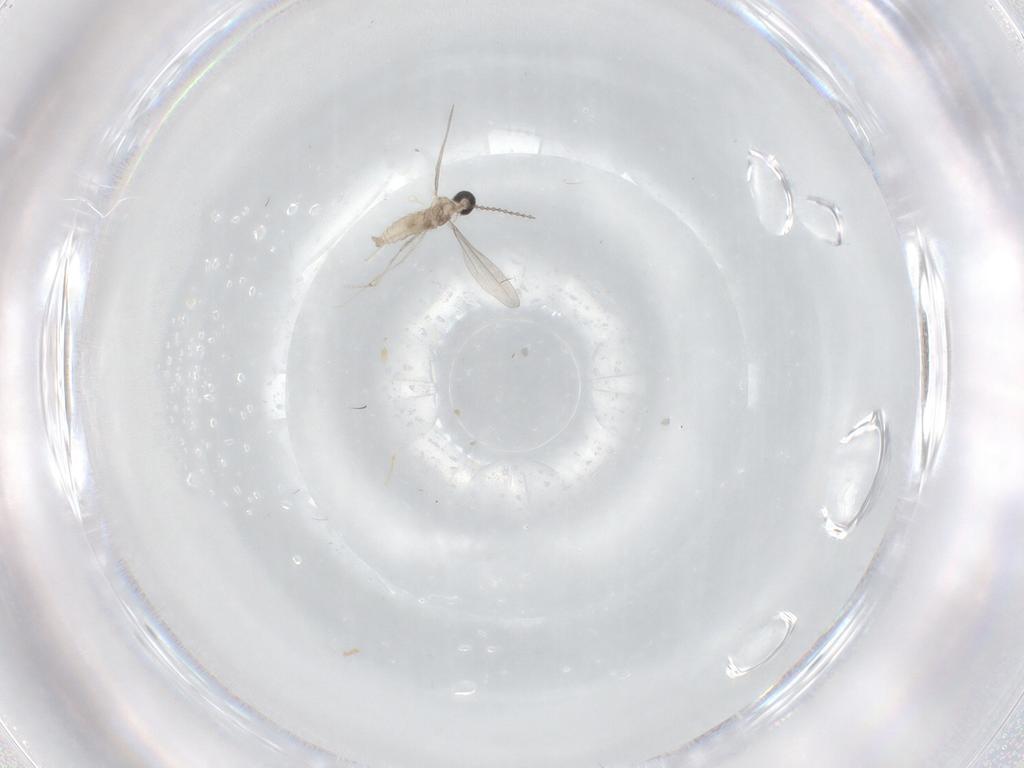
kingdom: Animalia
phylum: Arthropoda
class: Insecta
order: Diptera
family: Cecidomyiidae
